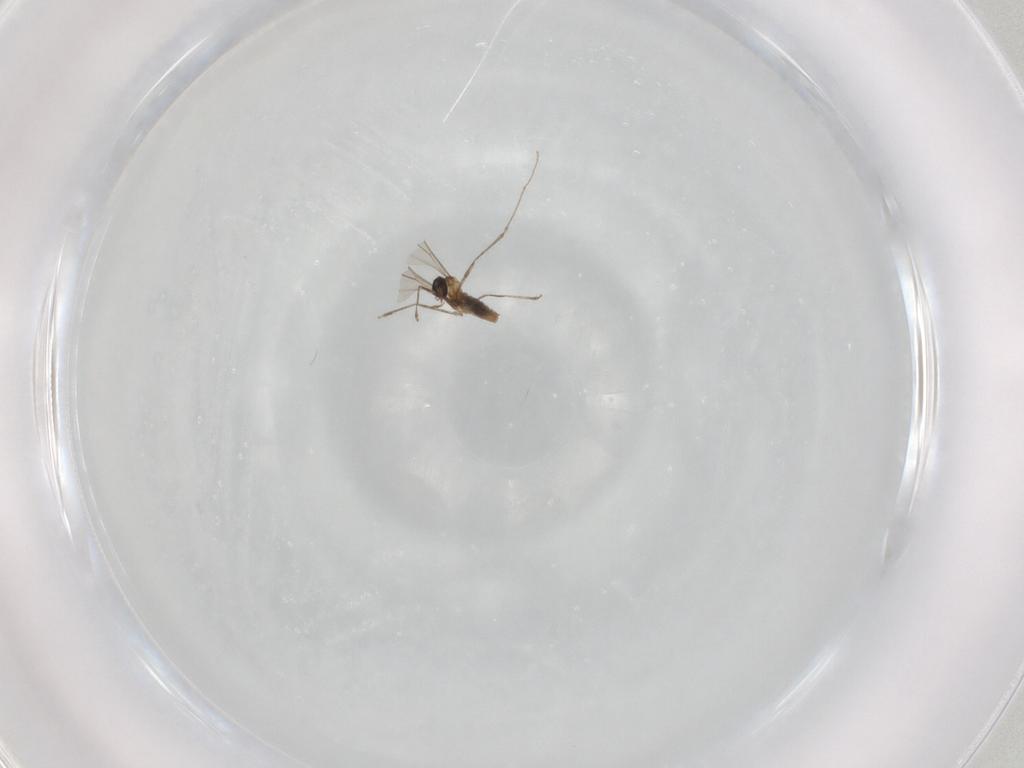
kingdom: Animalia
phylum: Arthropoda
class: Insecta
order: Diptera
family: Cecidomyiidae
